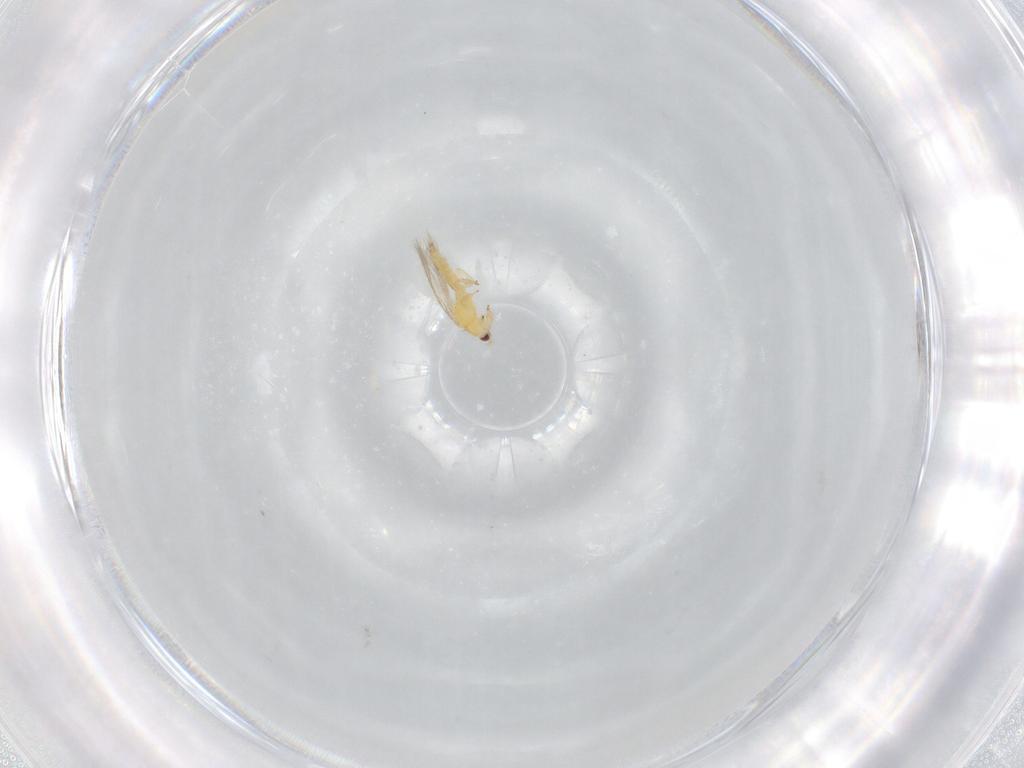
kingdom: Animalia
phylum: Arthropoda
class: Insecta
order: Thysanoptera
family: Thripidae
